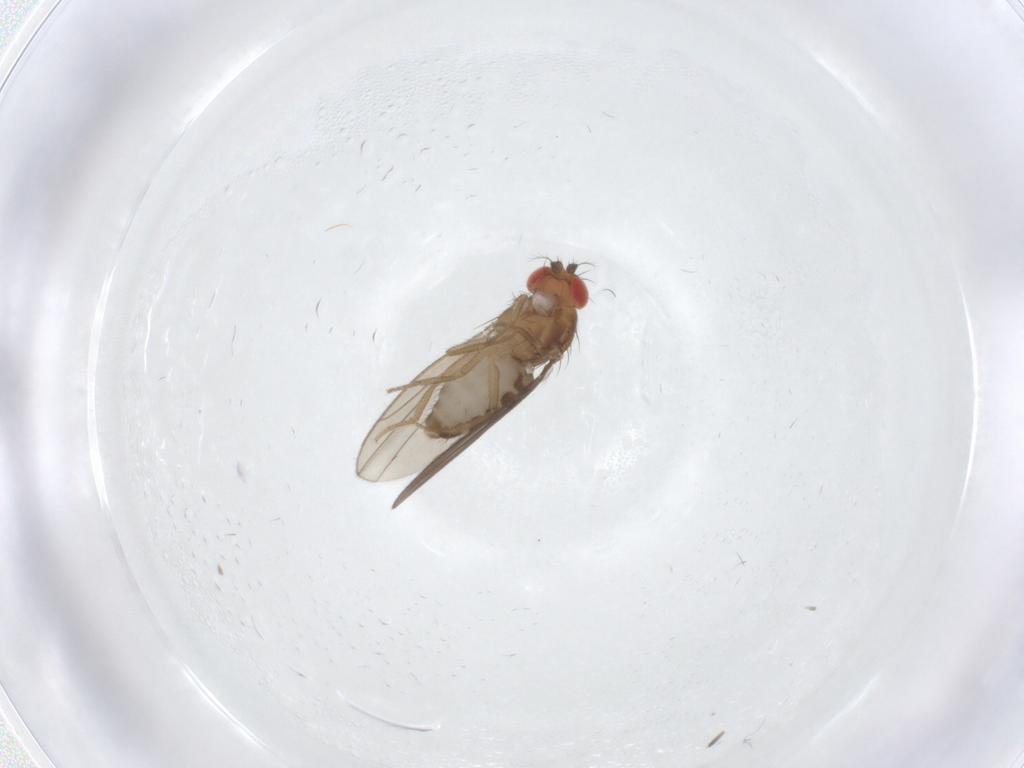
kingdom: Animalia
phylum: Arthropoda
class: Insecta
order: Diptera
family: Drosophilidae
